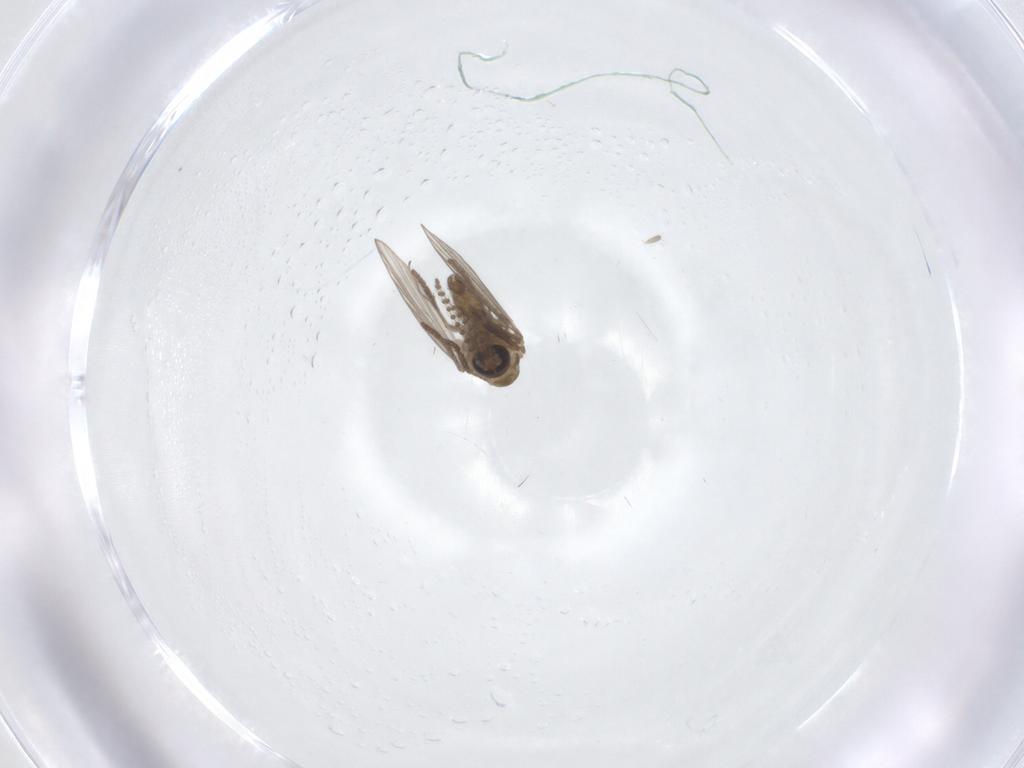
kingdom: Animalia
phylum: Arthropoda
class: Insecta
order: Diptera
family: Psychodidae
